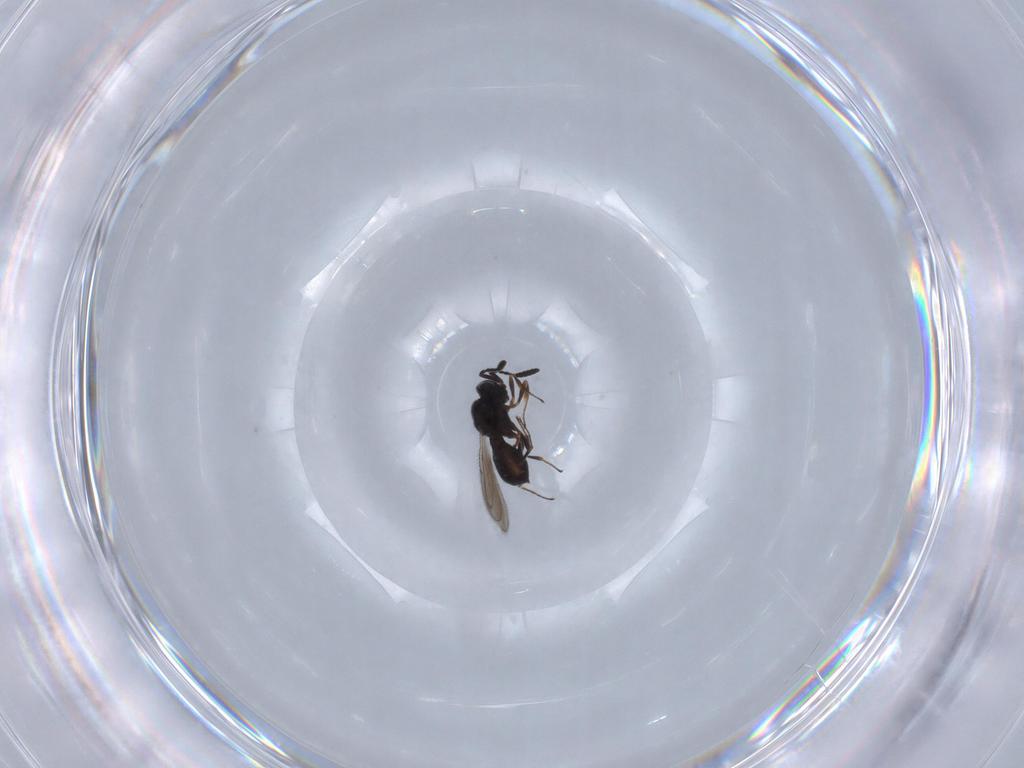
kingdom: Animalia
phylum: Arthropoda
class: Insecta
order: Hymenoptera
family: Scelionidae
